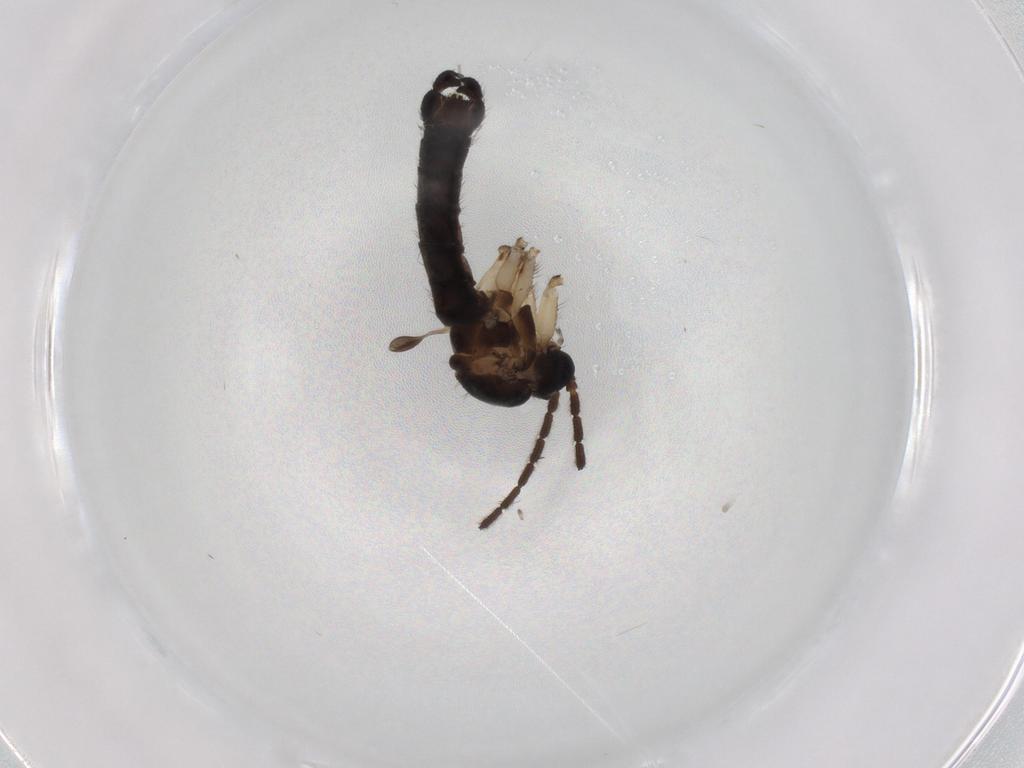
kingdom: Animalia
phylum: Arthropoda
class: Insecta
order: Diptera
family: Sciaridae
